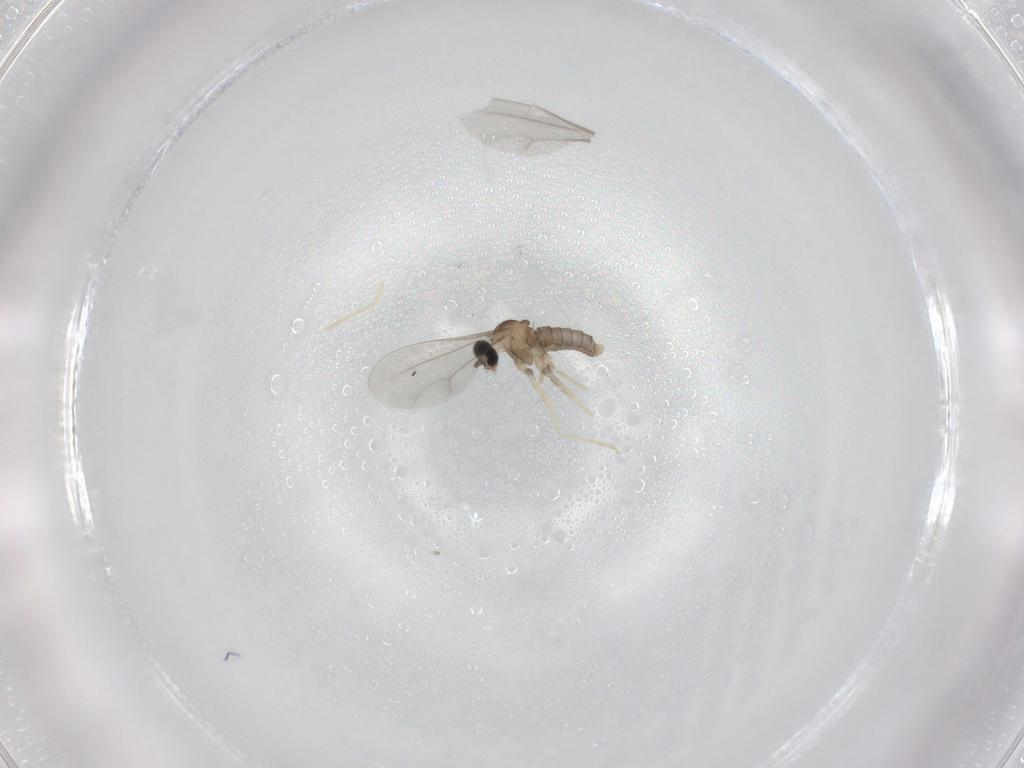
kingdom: Animalia
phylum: Arthropoda
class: Insecta
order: Diptera
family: Cecidomyiidae
